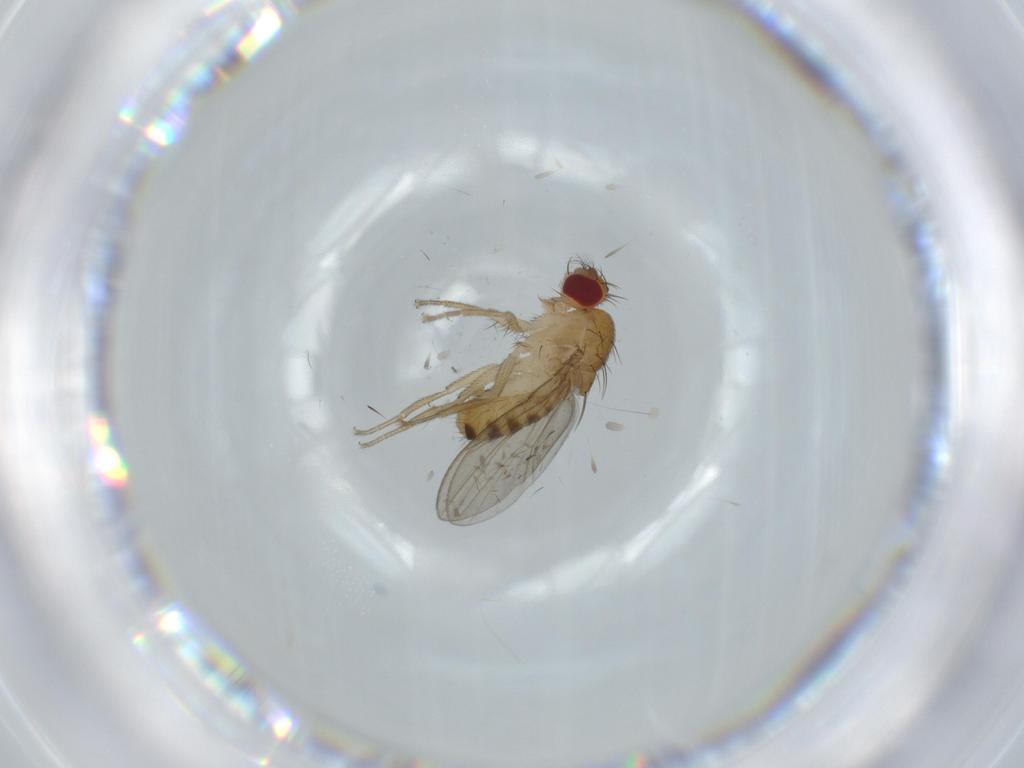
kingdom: Animalia
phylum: Arthropoda
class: Insecta
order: Diptera
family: Drosophilidae
